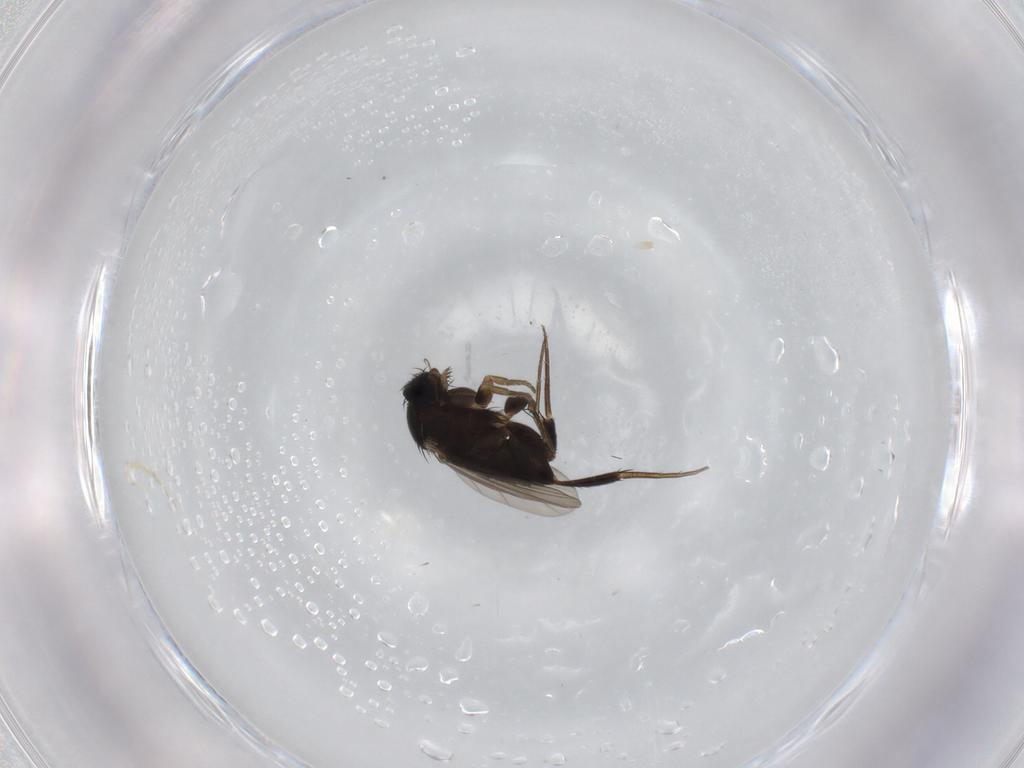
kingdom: Animalia
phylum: Arthropoda
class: Insecta
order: Diptera
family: Phoridae
